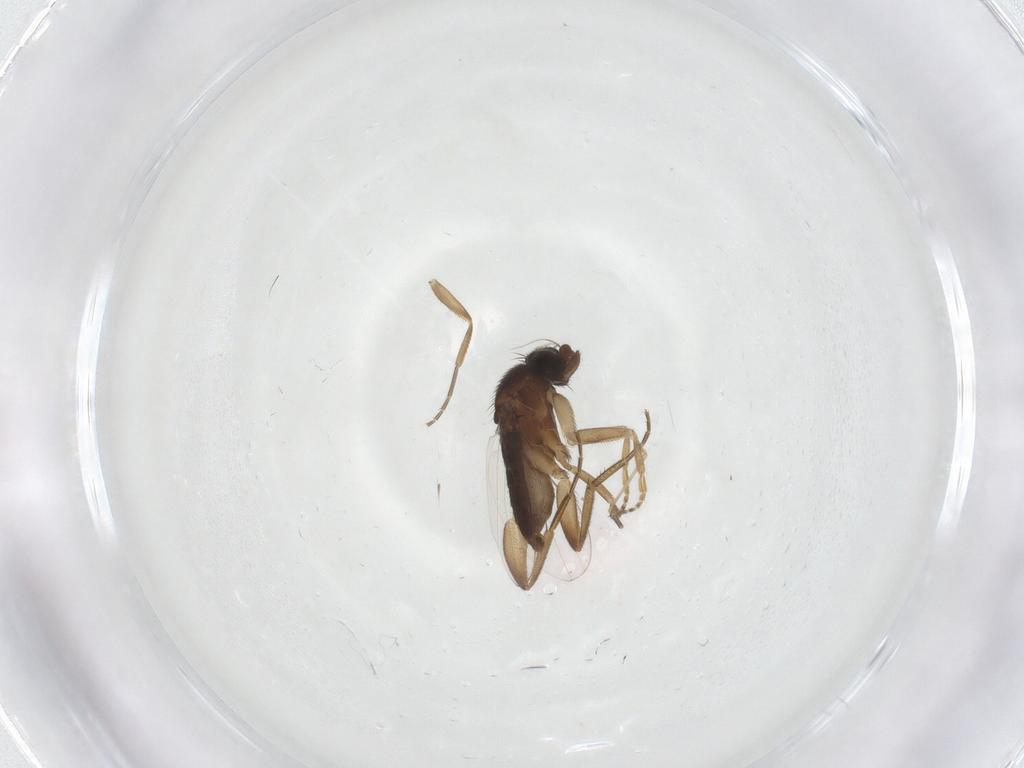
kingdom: Animalia
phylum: Arthropoda
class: Insecta
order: Diptera
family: Phoridae
